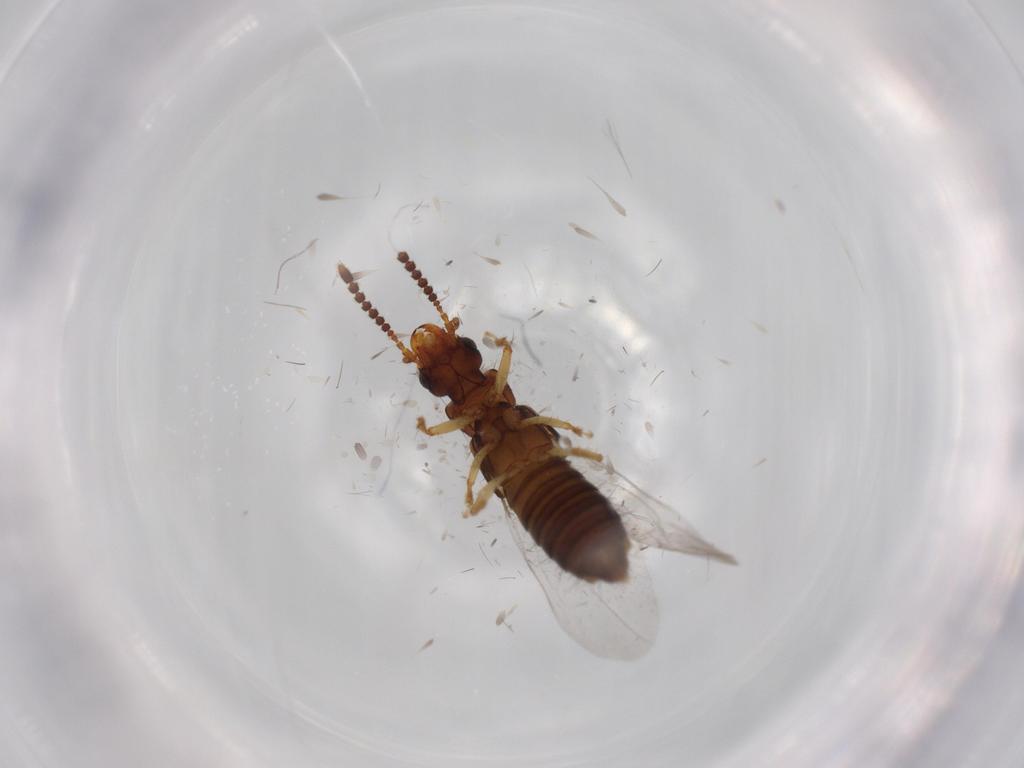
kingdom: Animalia
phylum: Arthropoda
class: Insecta
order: Coleoptera
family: Staphylinidae
